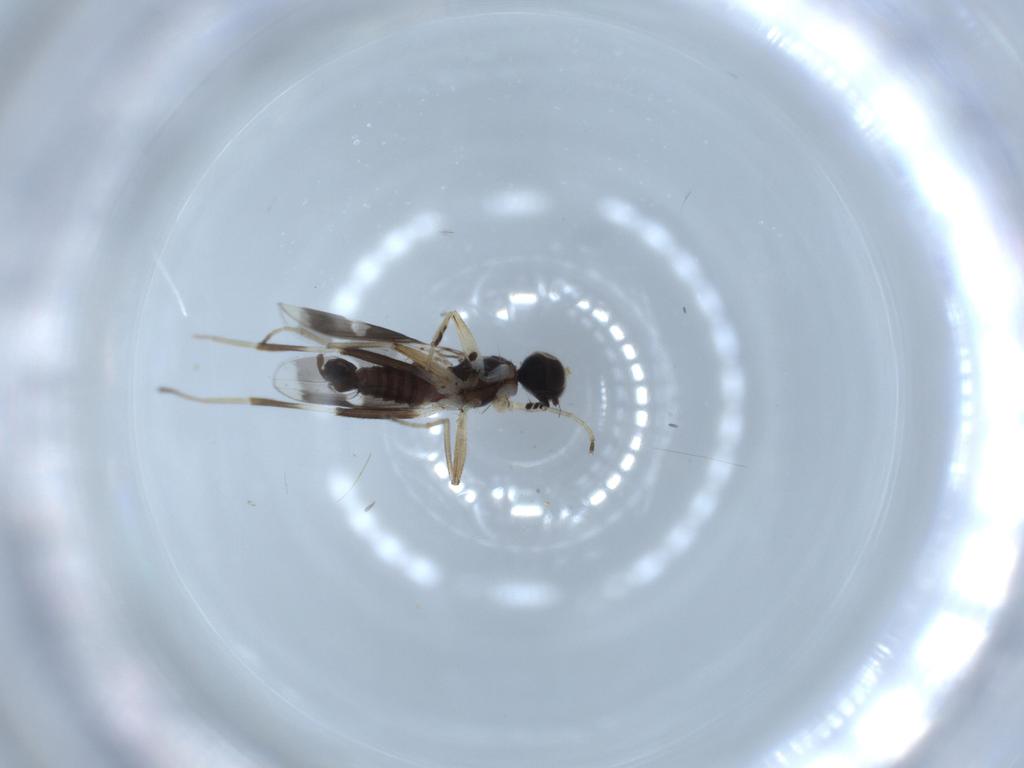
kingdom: Animalia
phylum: Arthropoda
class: Insecta
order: Diptera
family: Hybotidae
